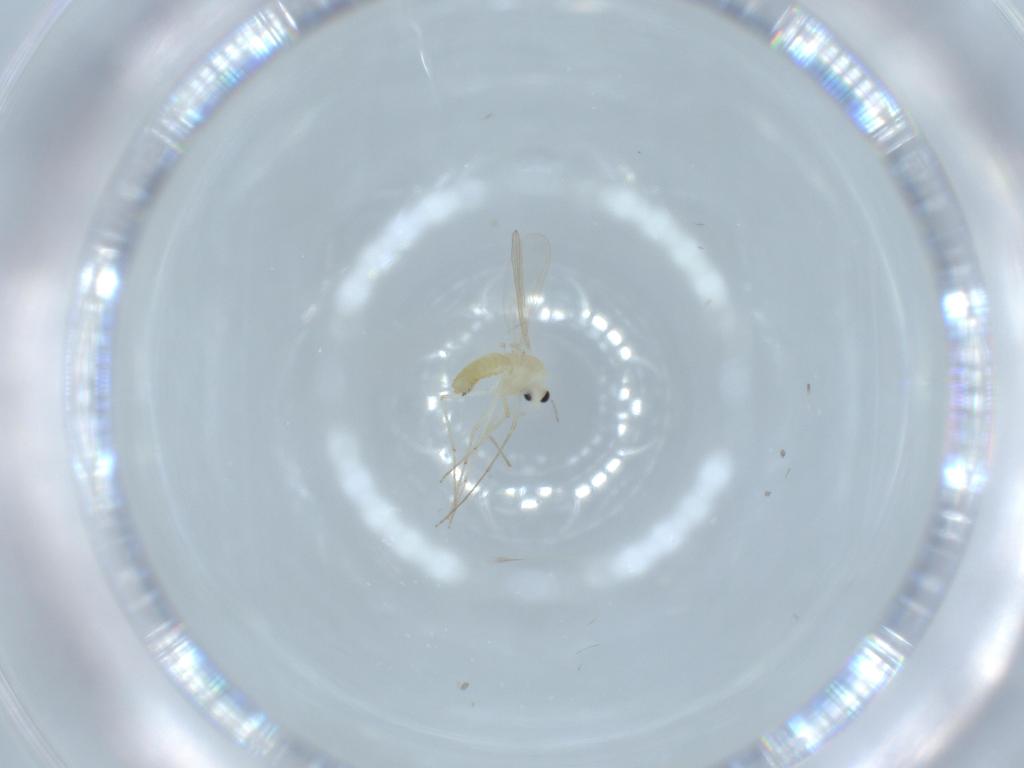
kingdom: Animalia
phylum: Arthropoda
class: Insecta
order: Diptera
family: Chironomidae
